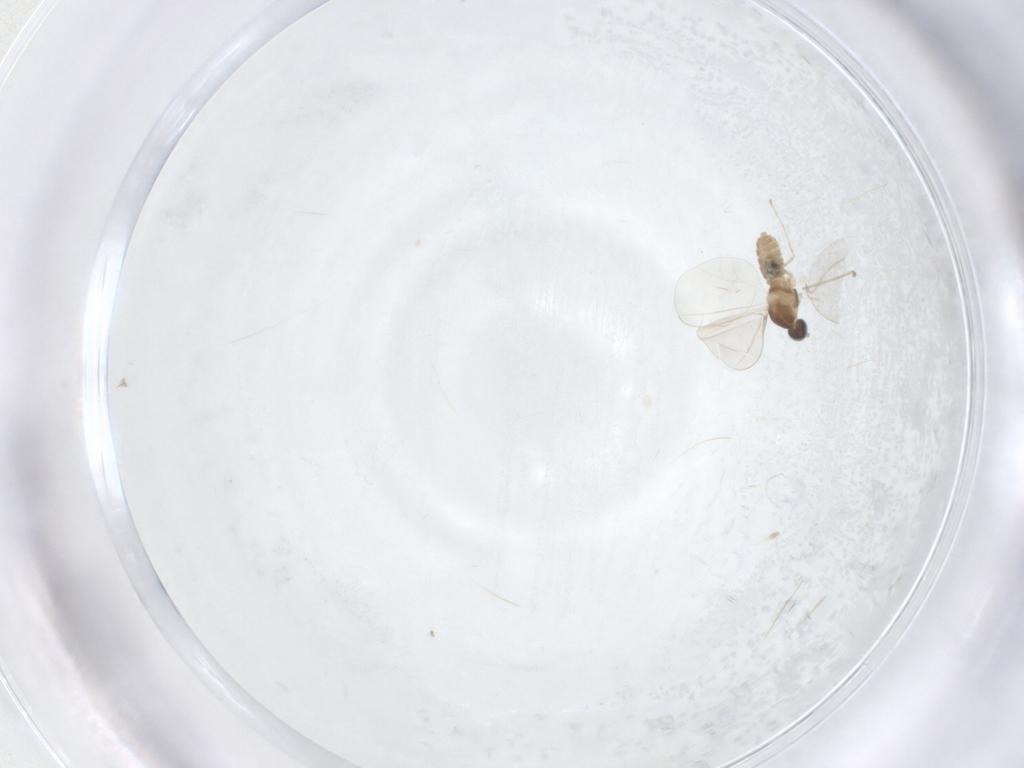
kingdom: Animalia
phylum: Arthropoda
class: Insecta
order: Diptera
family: Cecidomyiidae
